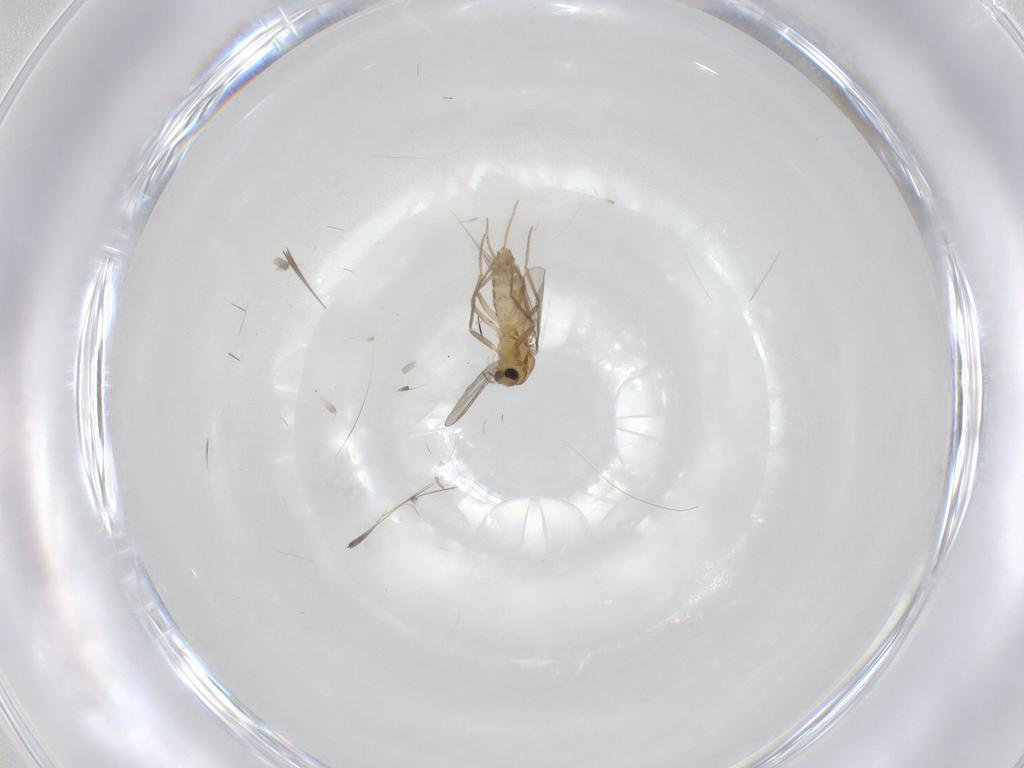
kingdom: Animalia
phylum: Arthropoda
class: Insecta
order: Diptera
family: Chironomidae
